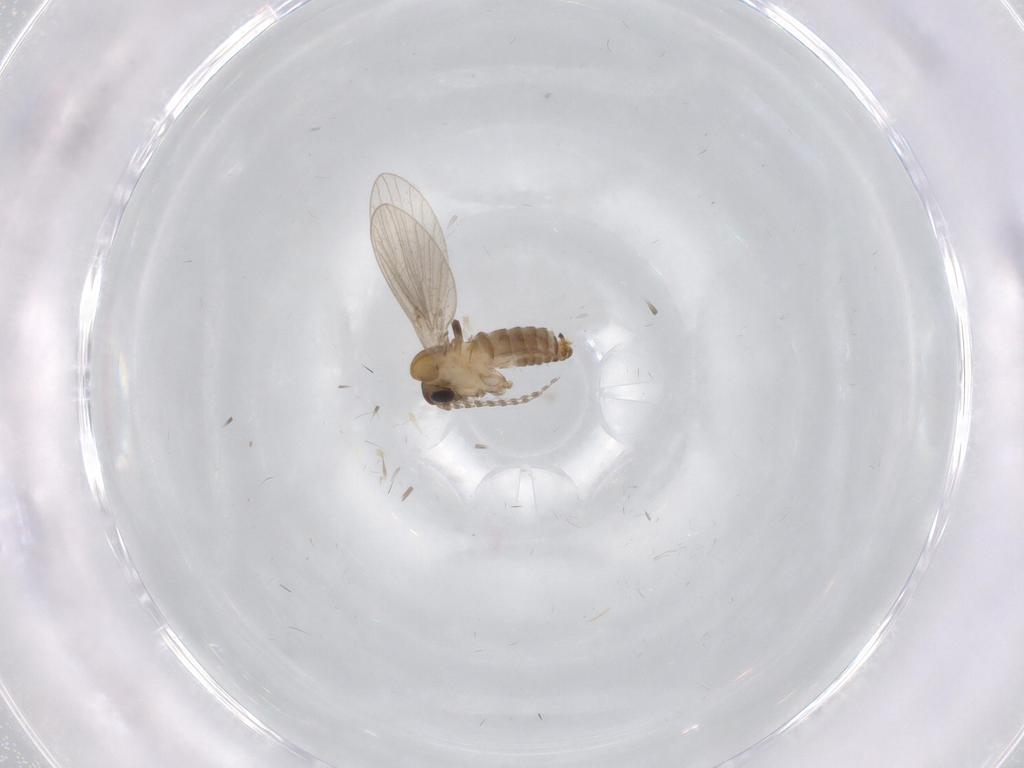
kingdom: Animalia
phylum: Arthropoda
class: Insecta
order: Diptera
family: Psychodidae
